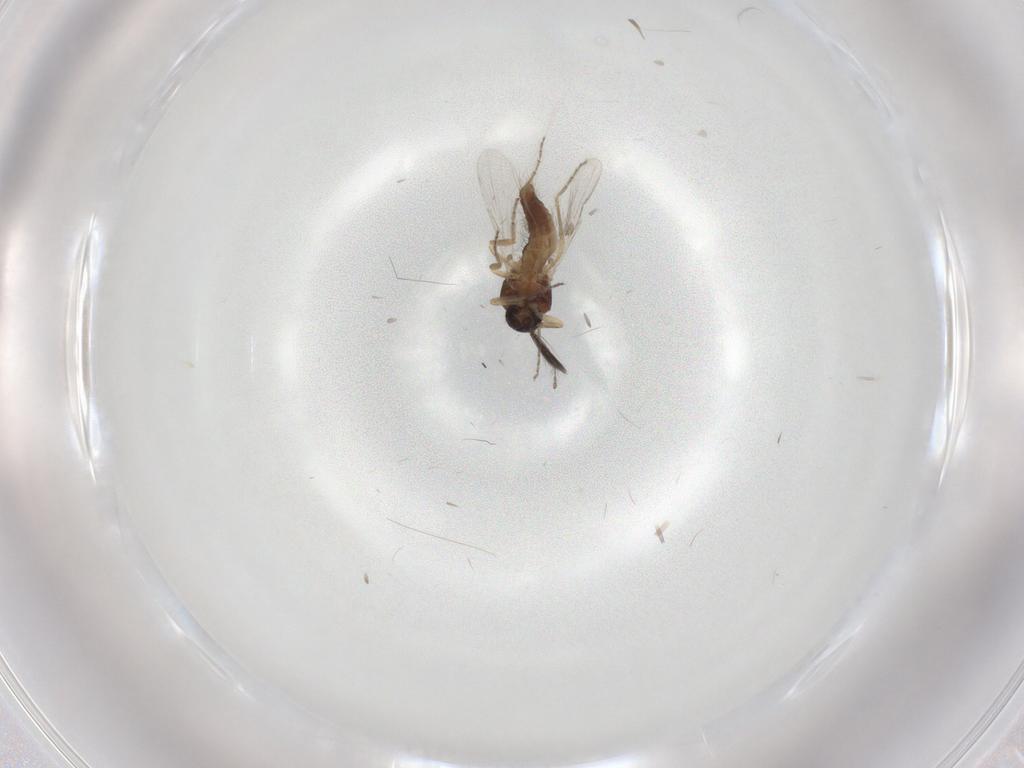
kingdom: Animalia
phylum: Arthropoda
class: Insecta
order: Diptera
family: Ceratopogonidae
